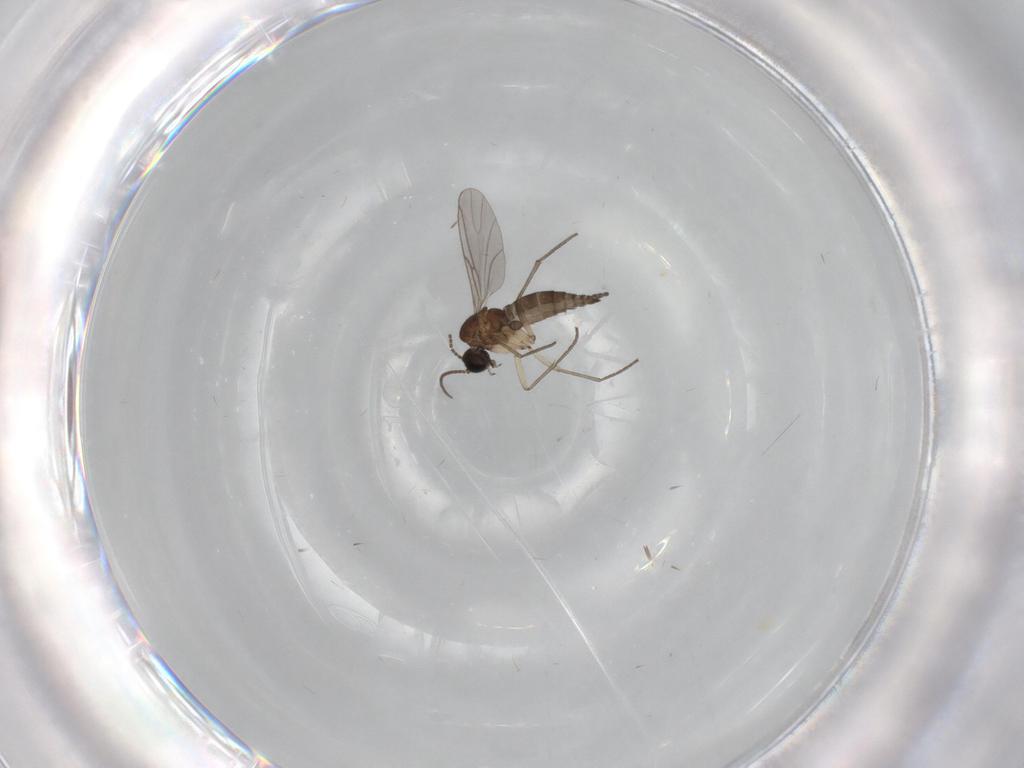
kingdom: Animalia
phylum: Arthropoda
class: Insecta
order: Diptera
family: Sciaridae
